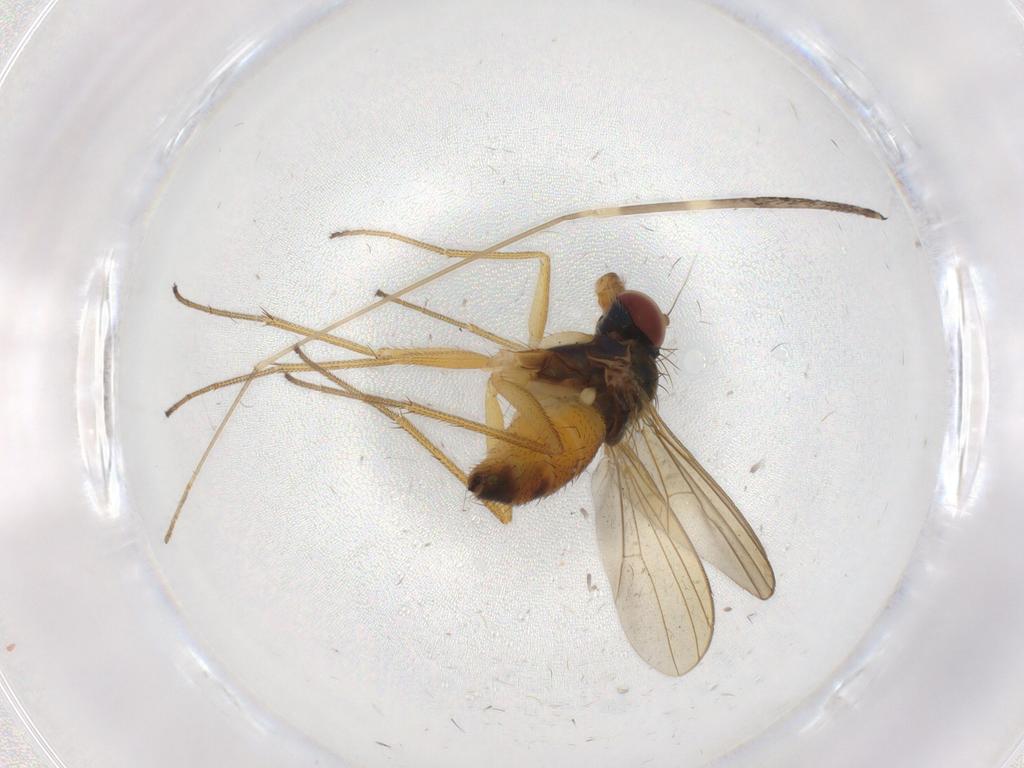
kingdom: Animalia
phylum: Arthropoda
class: Insecta
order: Diptera
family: Dolichopodidae
